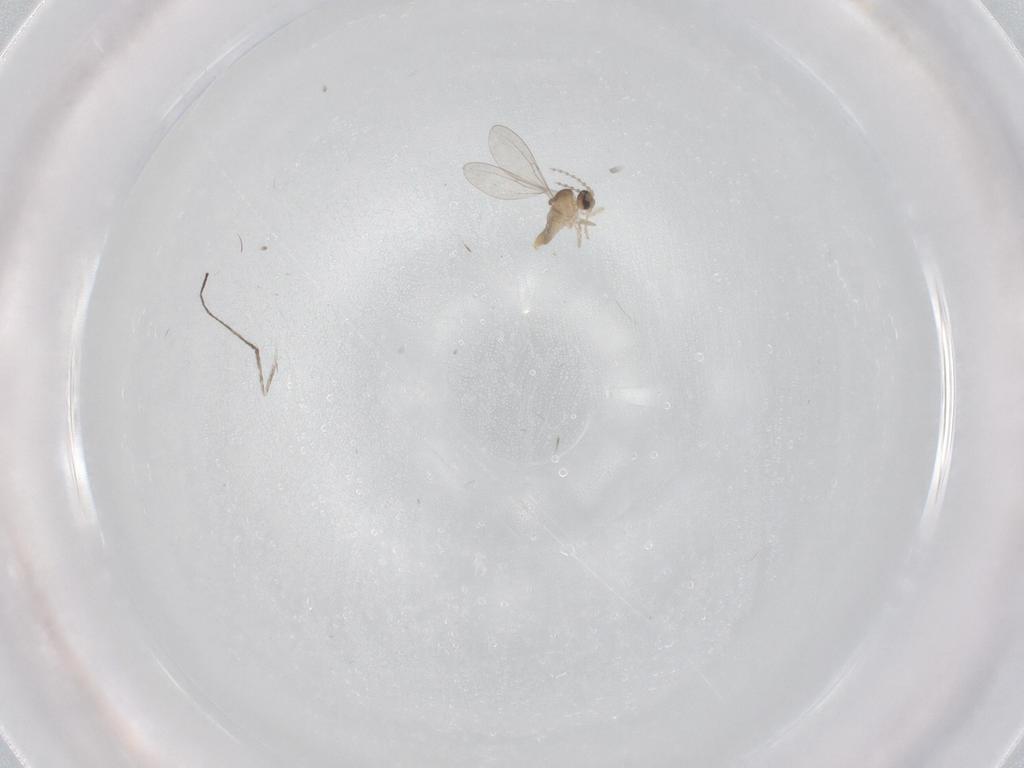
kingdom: Animalia
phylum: Arthropoda
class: Insecta
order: Diptera
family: Cecidomyiidae
